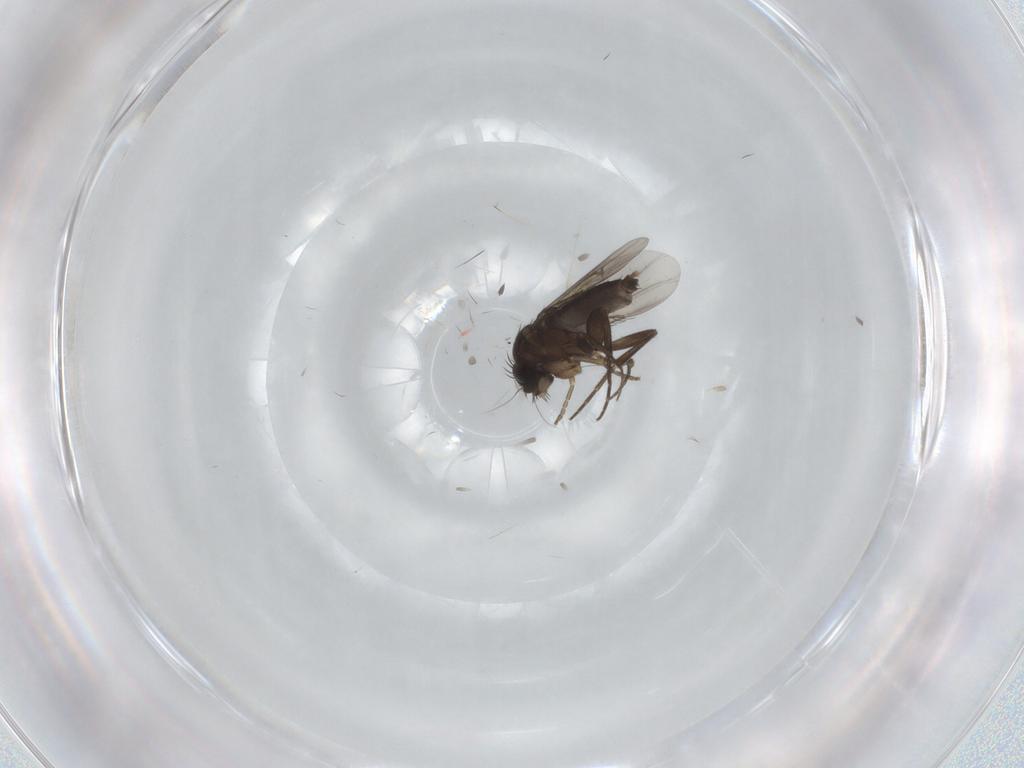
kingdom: Animalia
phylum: Arthropoda
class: Insecta
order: Diptera
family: Phoridae
